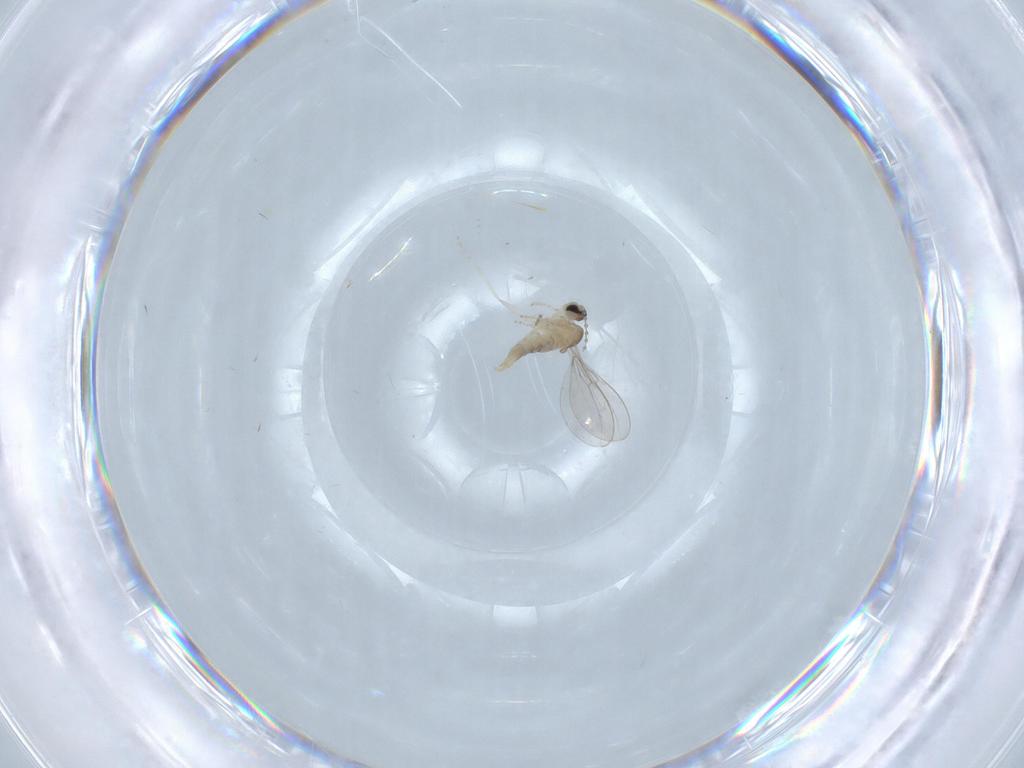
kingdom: Animalia
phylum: Arthropoda
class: Insecta
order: Diptera
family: Cecidomyiidae
